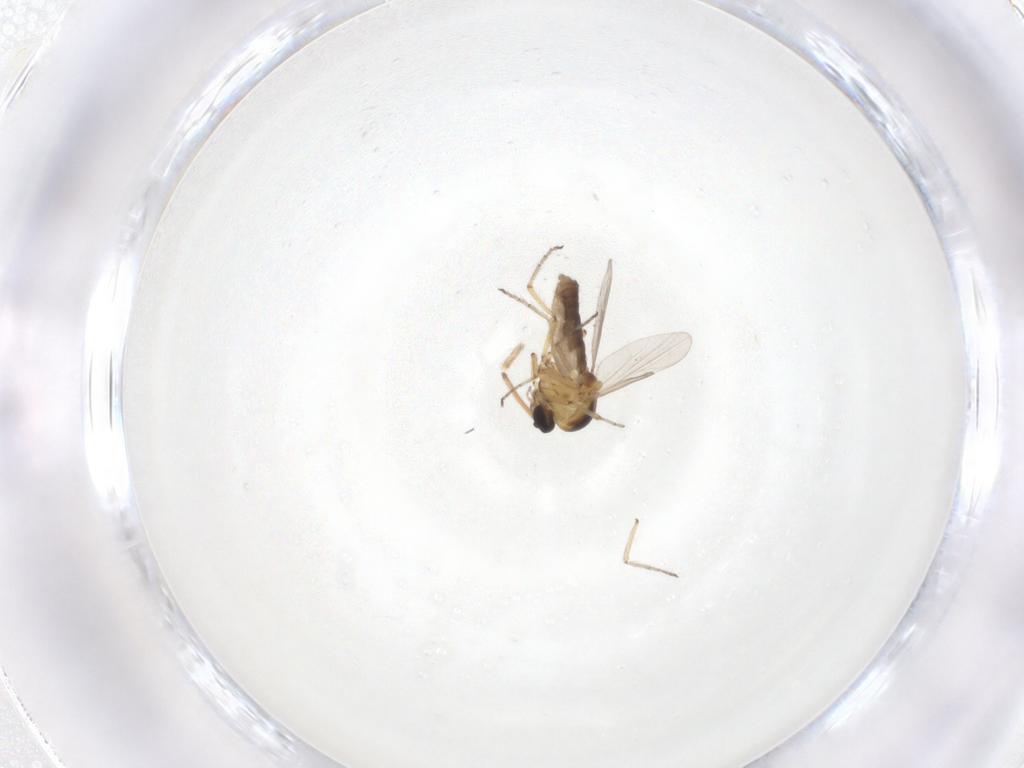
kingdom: Animalia
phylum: Arthropoda
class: Insecta
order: Diptera
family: Ceratopogonidae
